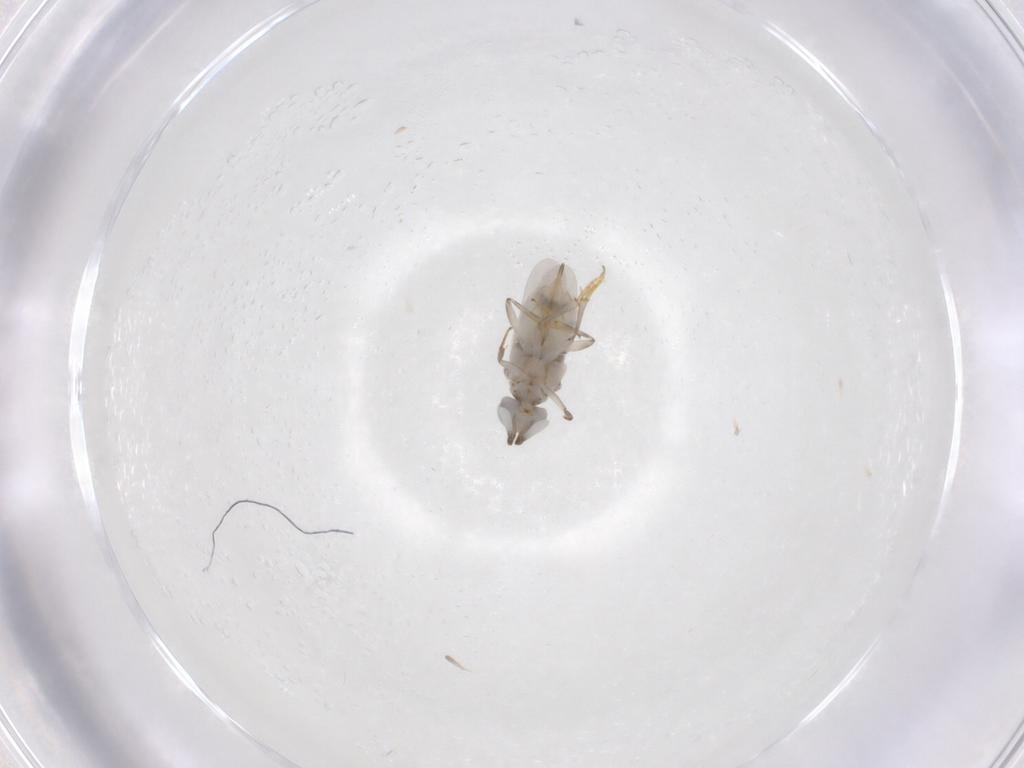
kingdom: Animalia
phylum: Arthropoda
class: Insecta
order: Hymenoptera
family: Encyrtidae
